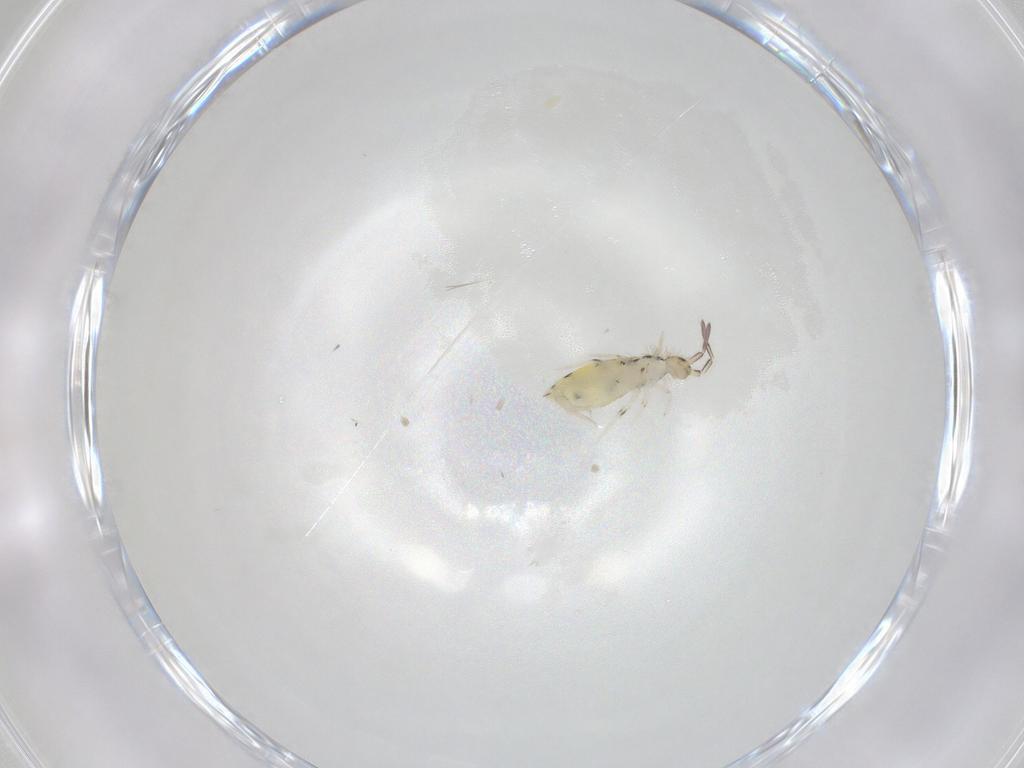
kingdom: Animalia
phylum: Arthropoda
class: Collembola
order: Entomobryomorpha
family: Entomobryidae
